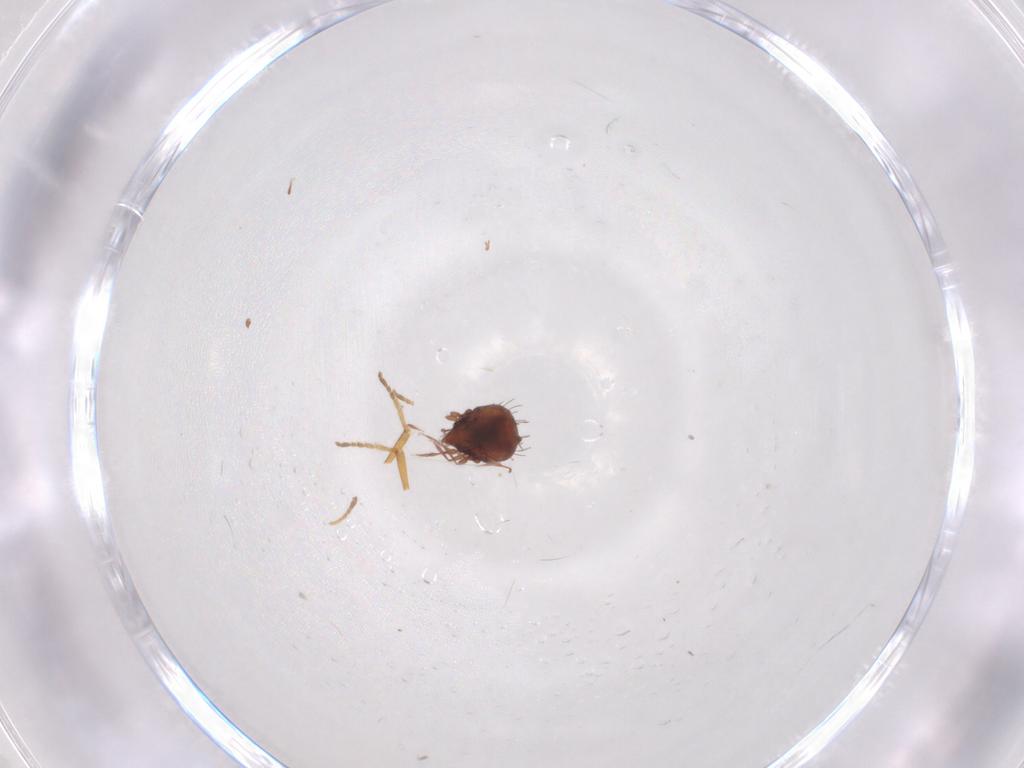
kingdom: Animalia
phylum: Arthropoda
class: Arachnida
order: Sarcoptiformes
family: Caloppiidae
